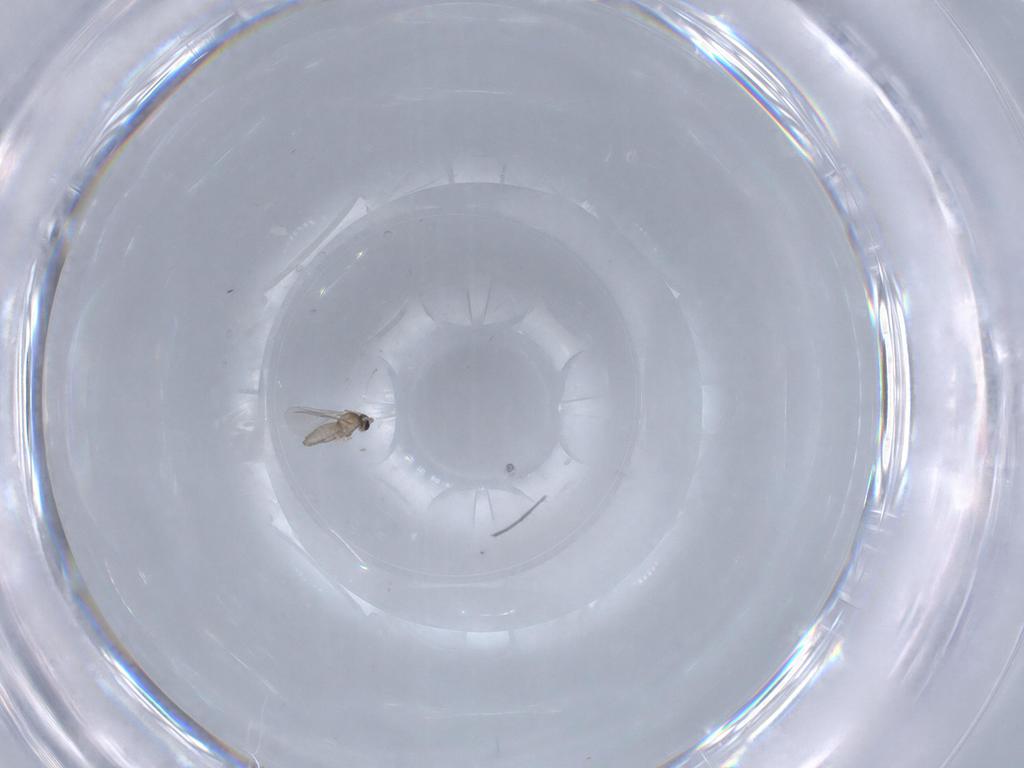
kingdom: Animalia
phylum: Arthropoda
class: Insecta
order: Diptera
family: Cecidomyiidae
